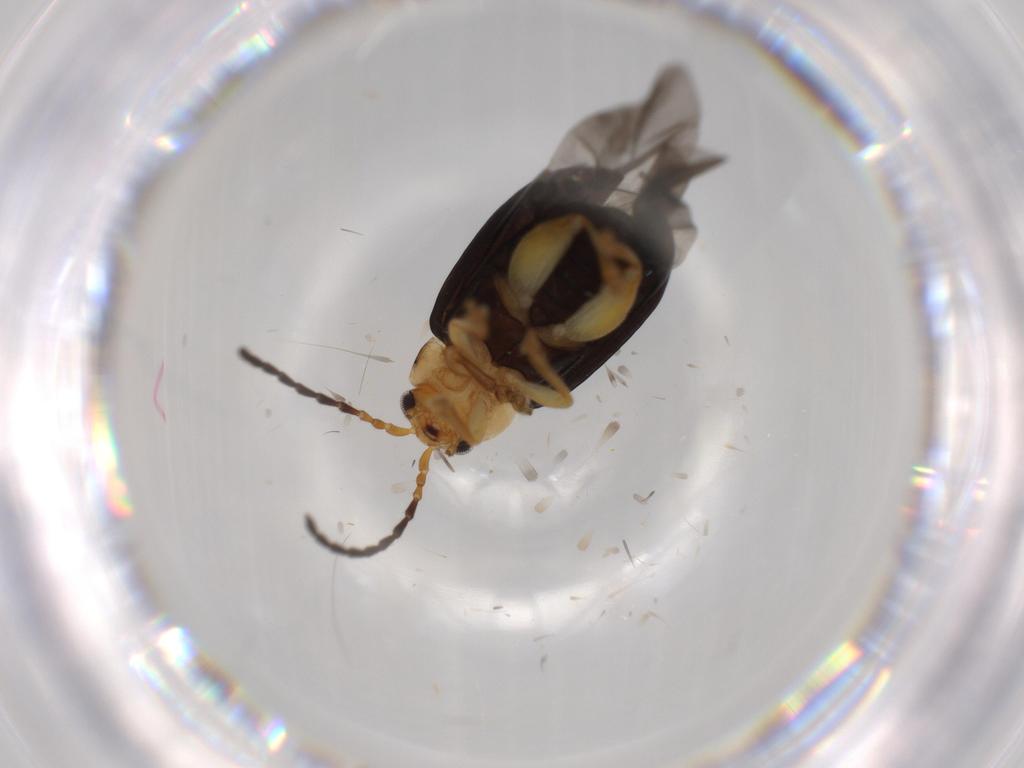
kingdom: Animalia
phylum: Arthropoda
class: Insecta
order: Coleoptera
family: Chrysomelidae
